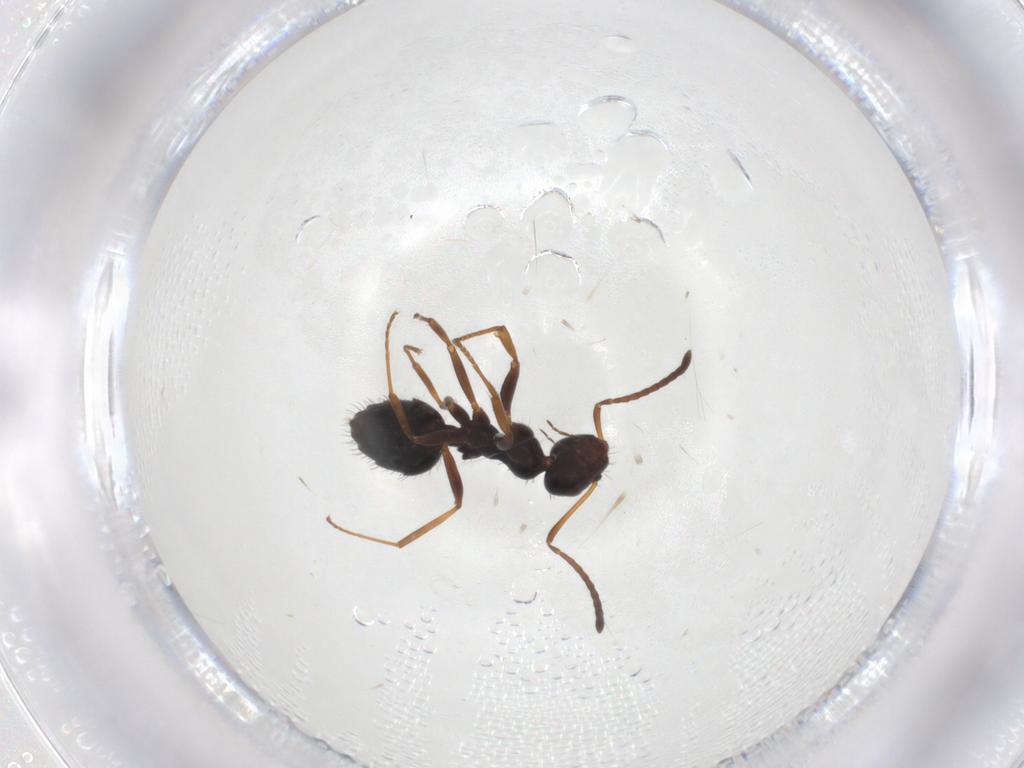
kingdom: Animalia
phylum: Arthropoda
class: Insecta
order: Hymenoptera
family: Formicidae
